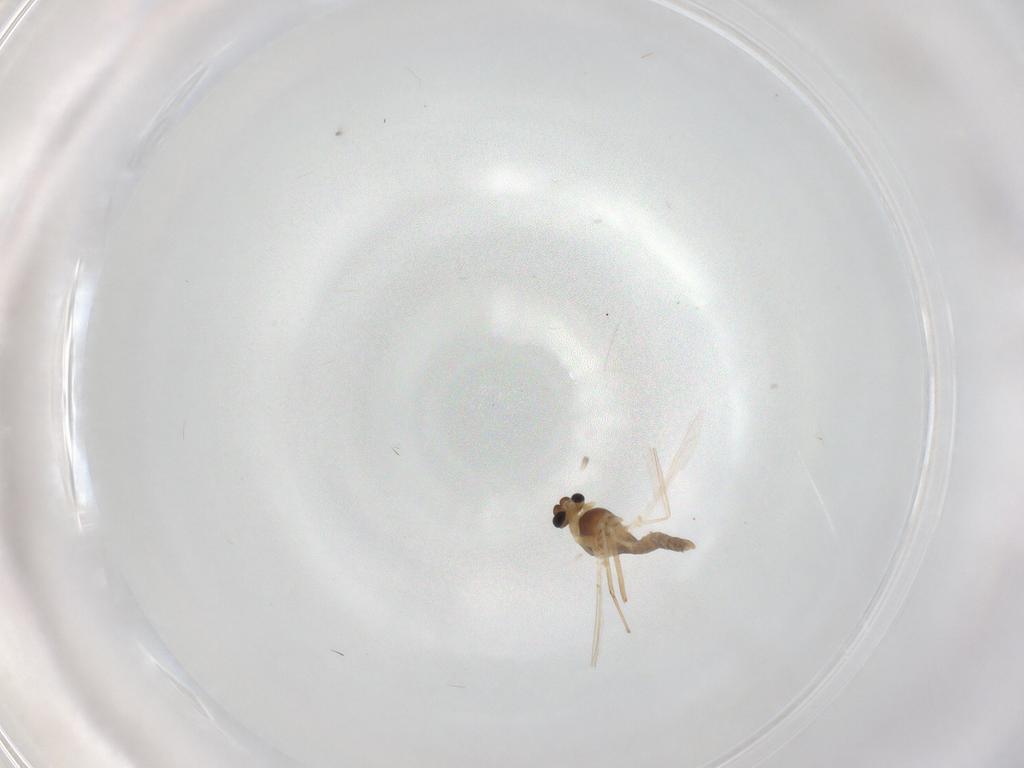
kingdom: Animalia
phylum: Arthropoda
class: Insecta
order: Diptera
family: Chironomidae
